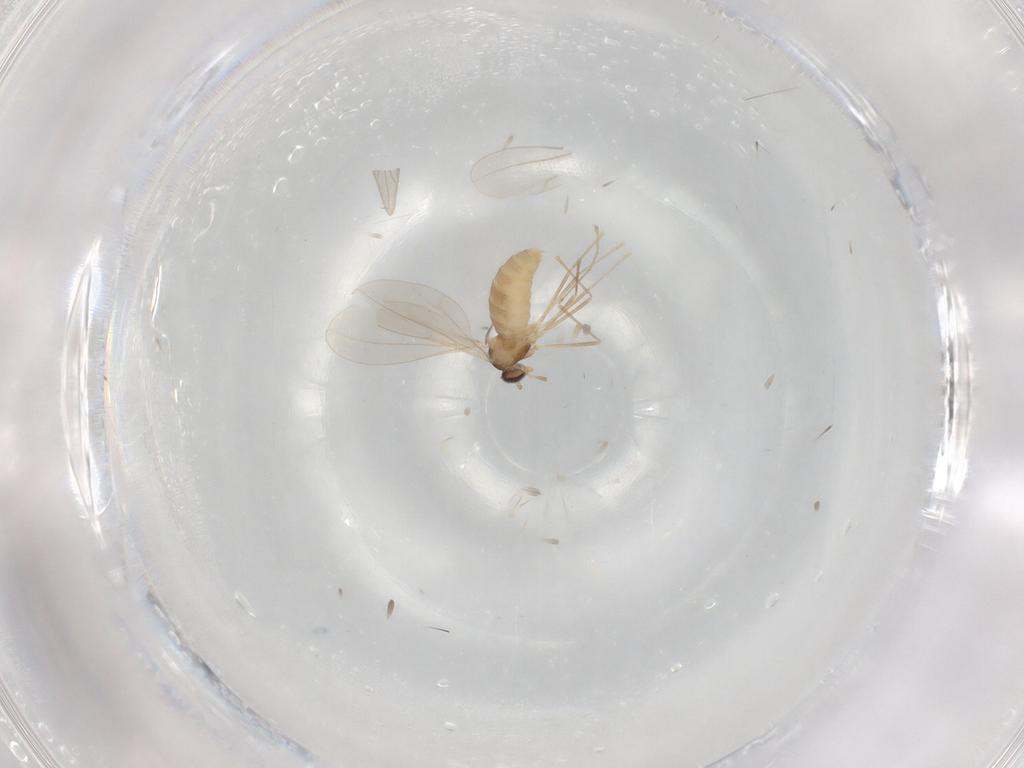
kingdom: Animalia
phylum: Arthropoda
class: Insecta
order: Diptera
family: Cecidomyiidae
